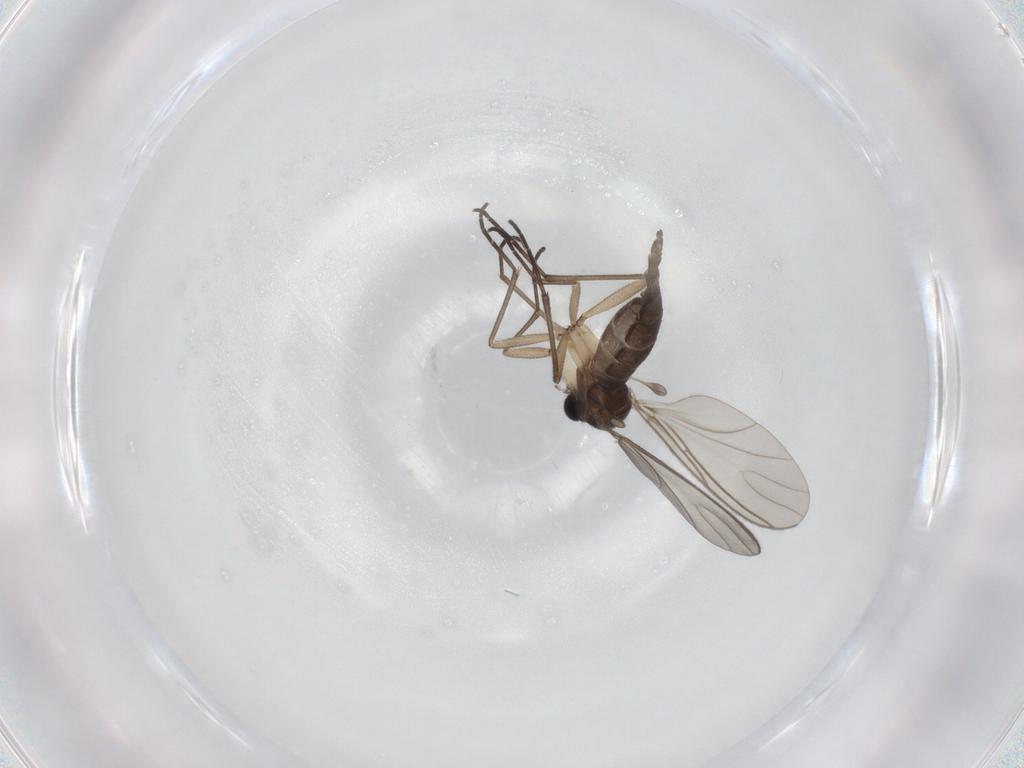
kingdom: Animalia
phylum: Arthropoda
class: Insecta
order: Diptera
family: Sciaridae
